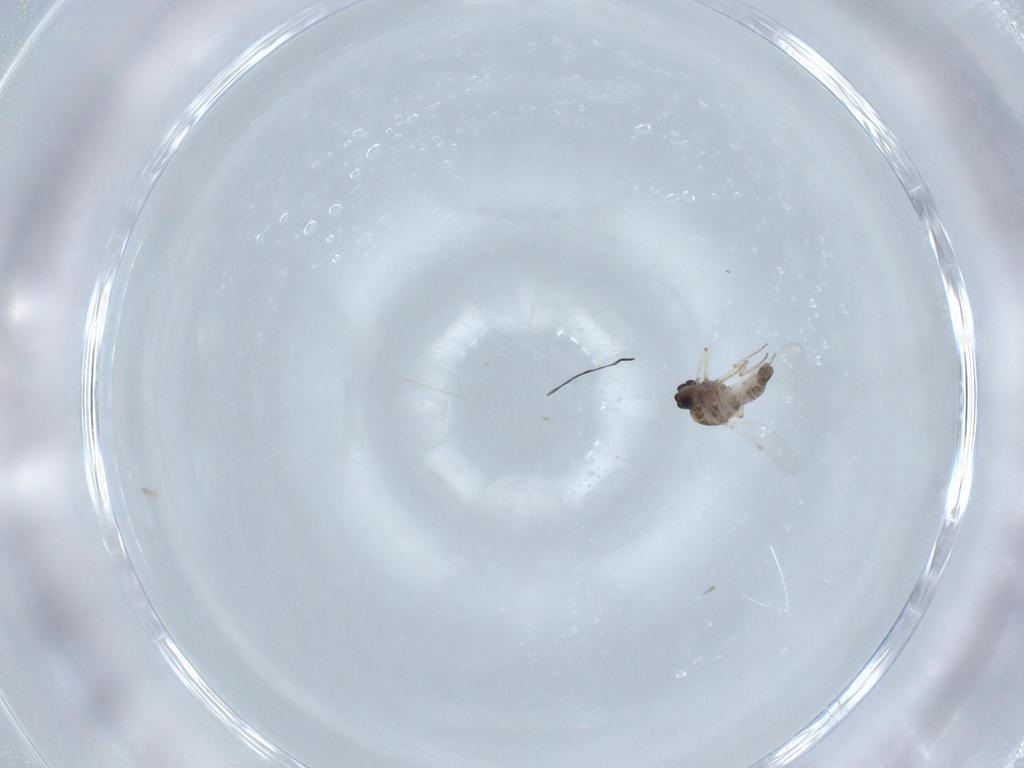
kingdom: Animalia
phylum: Arthropoda
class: Insecta
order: Diptera
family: Ceratopogonidae
